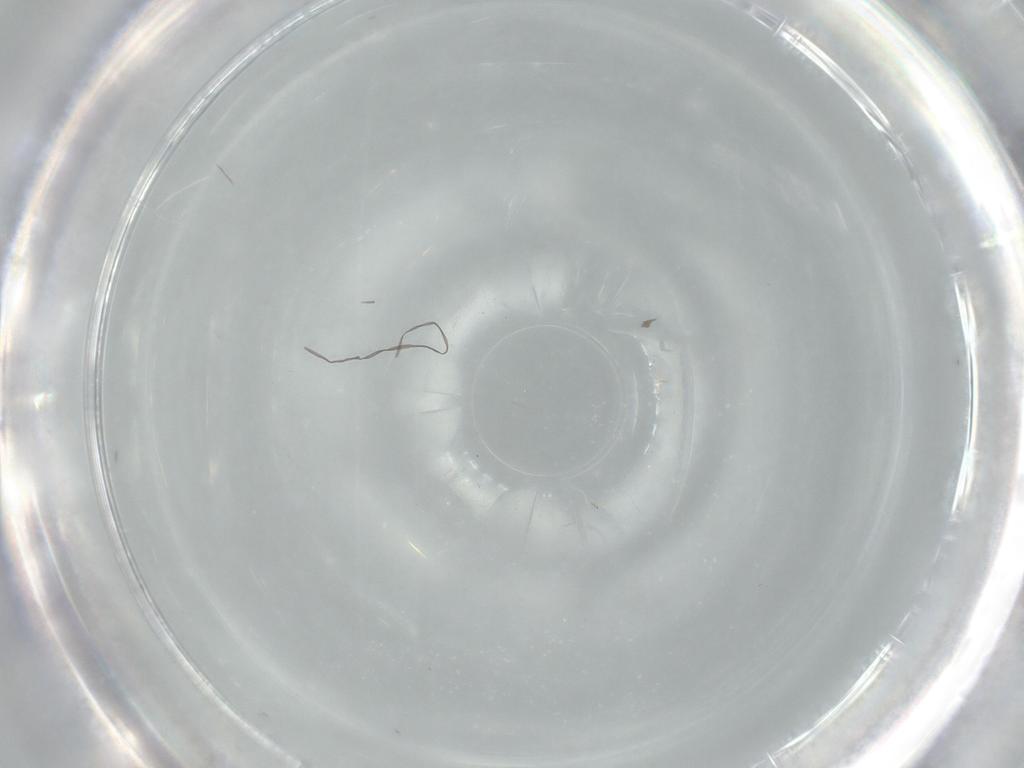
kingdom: Animalia
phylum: Arthropoda
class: Insecta
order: Diptera
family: Cecidomyiidae
